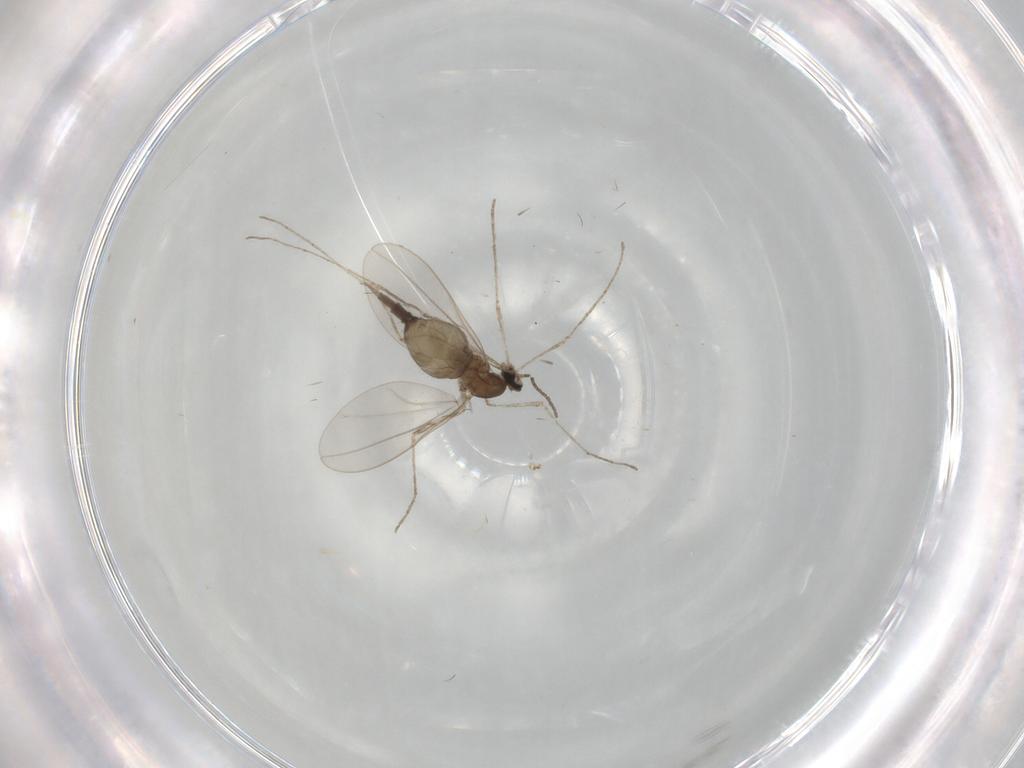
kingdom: Animalia
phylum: Arthropoda
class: Insecta
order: Diptera
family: Cecidomyiidae
